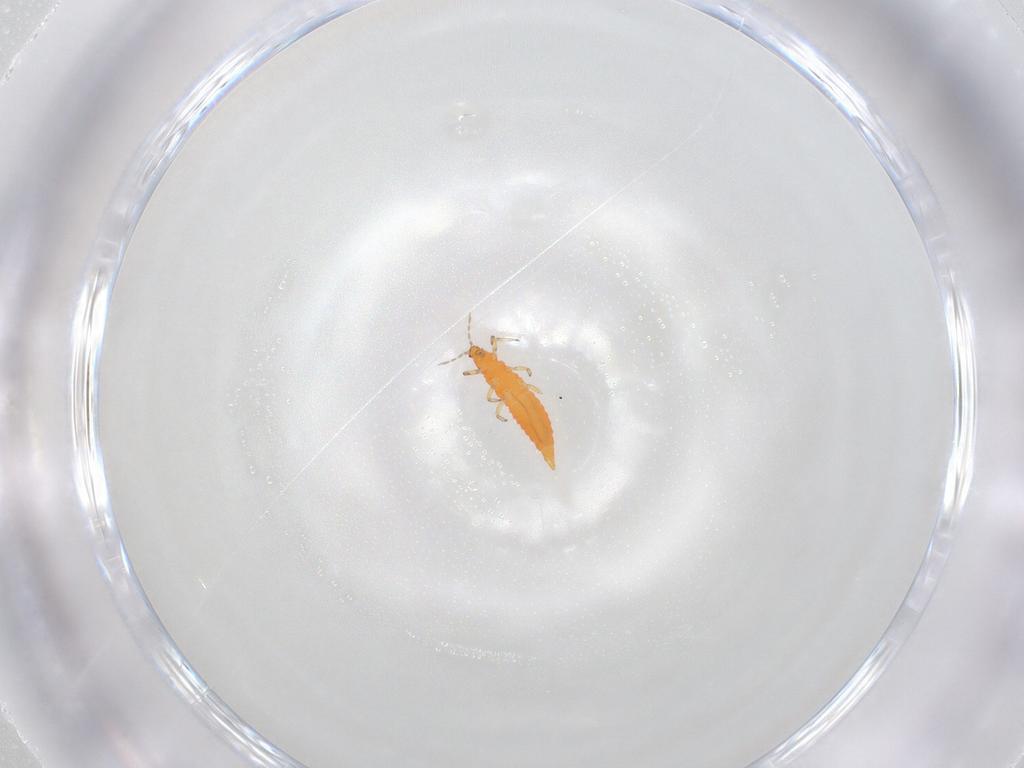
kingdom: Animalia
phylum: Arthropoda
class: Insecta
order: Thysanoptera
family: Aeolothripidae
